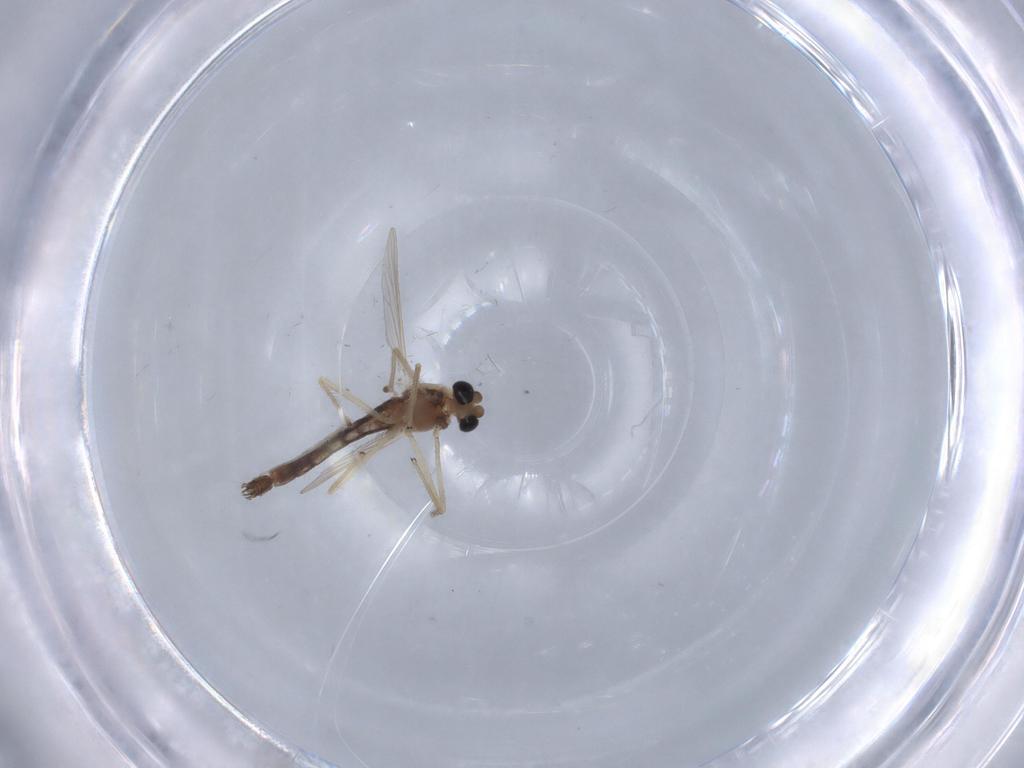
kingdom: Animalia
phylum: Arthropoda
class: Insecta
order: Diptera
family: Chironomidae
